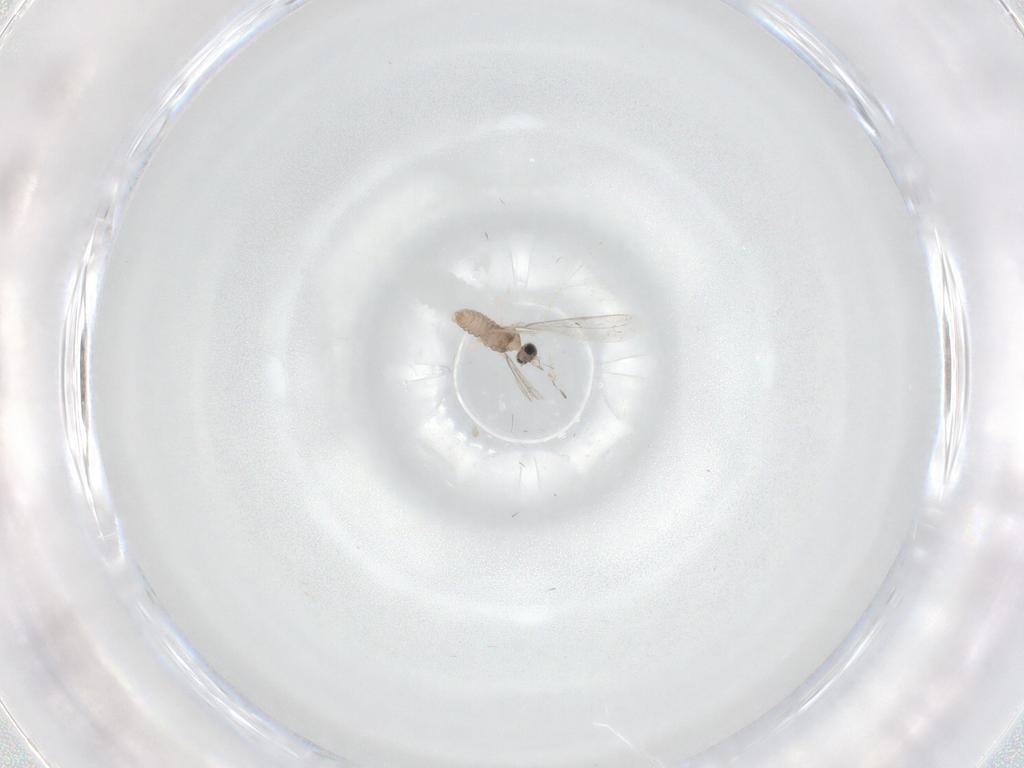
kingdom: Animalia
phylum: Arthropoda
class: Insecta
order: Diptera
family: Cecidomyiidae
